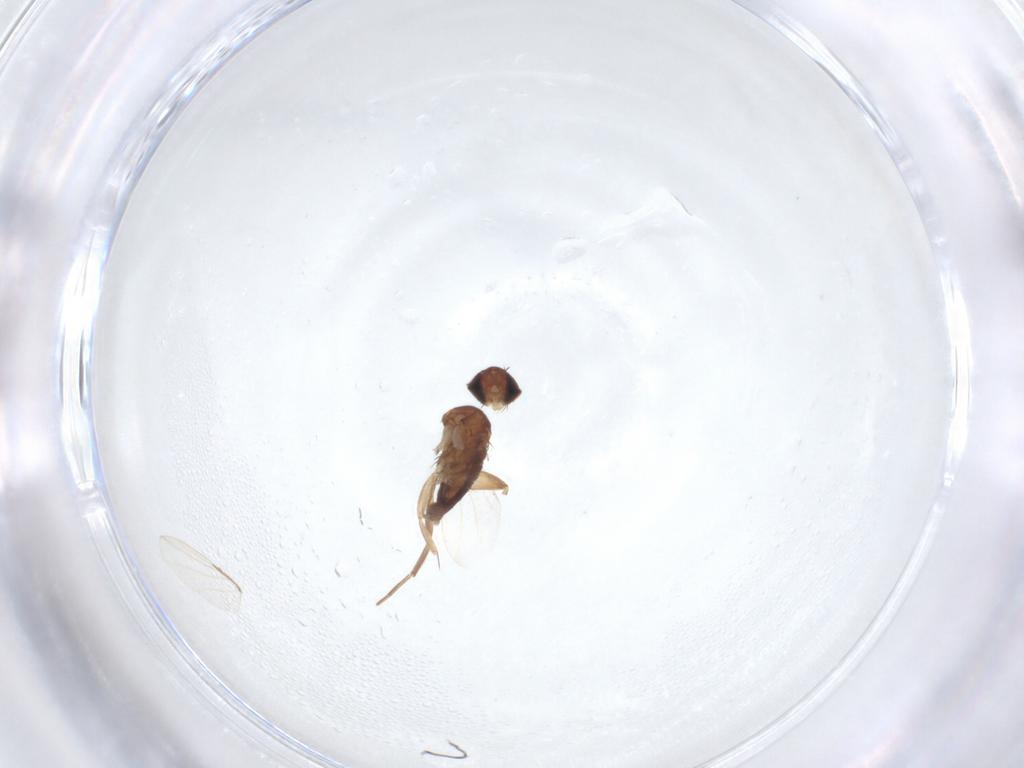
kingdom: Animalia
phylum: Arthropoda
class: Insecta
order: Diptera
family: Phoridae
